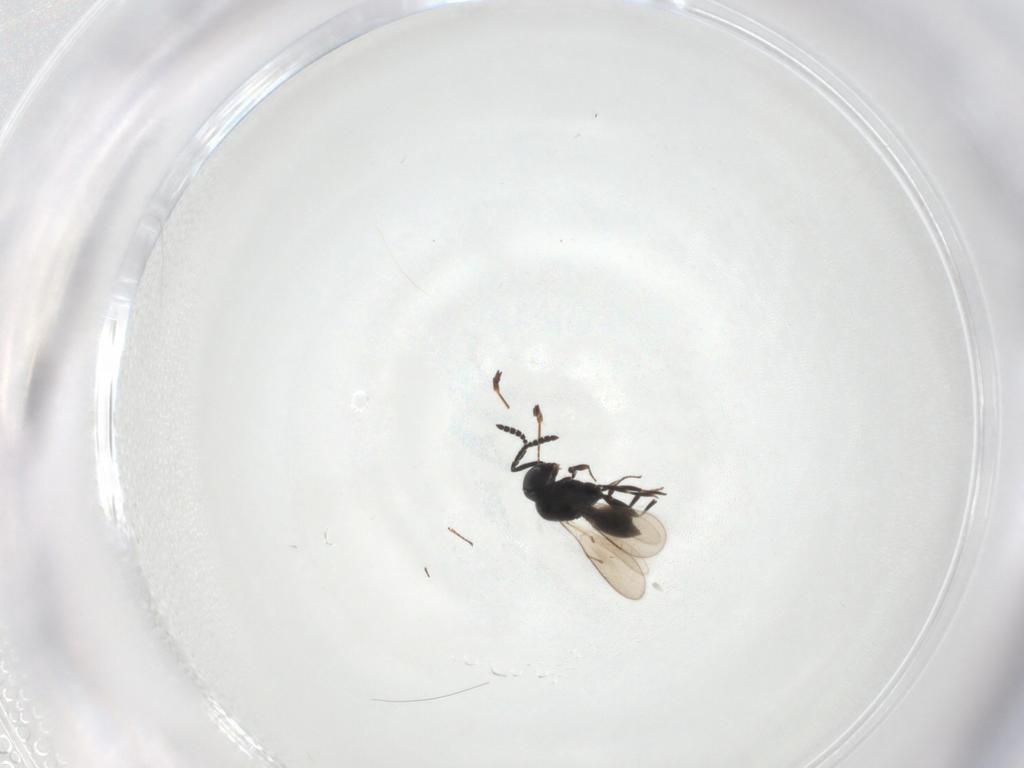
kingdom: Animalia
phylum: Arthropoda
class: Insecta
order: Hymenoptera
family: Scelionidae
